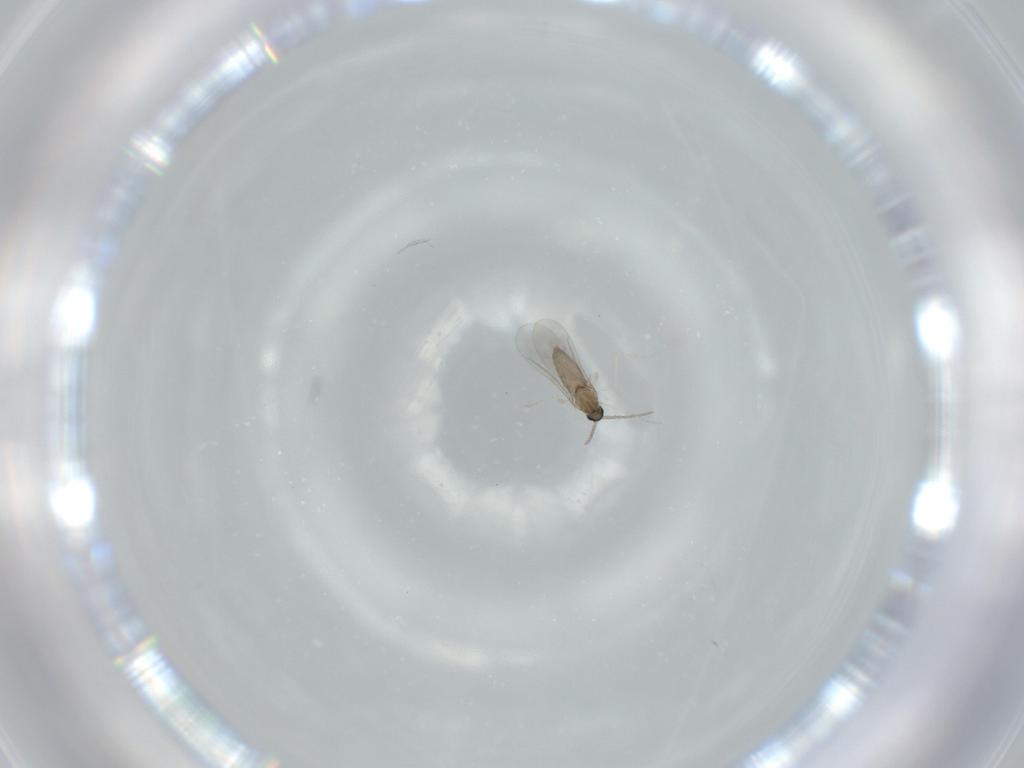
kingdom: Animalia
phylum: Arthropoda
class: Insecta
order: Diptera
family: Cecidomyiidae
